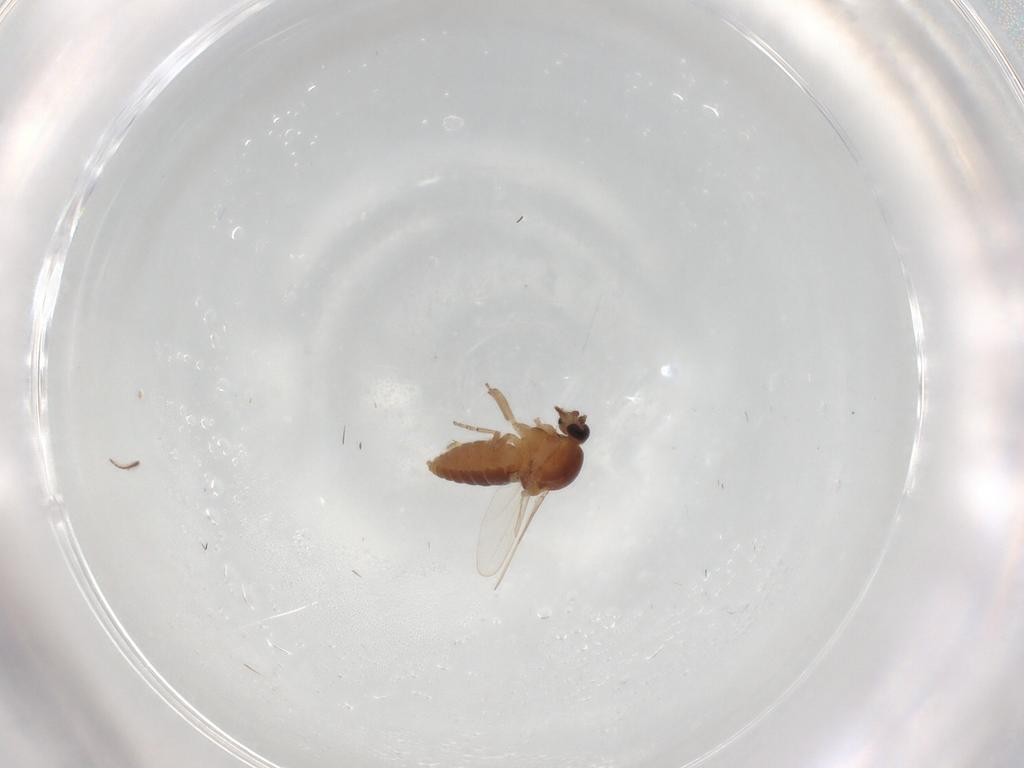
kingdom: Animalia
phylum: Arthropoda
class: Insecta
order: Diptera
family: Ceratopogonidae
